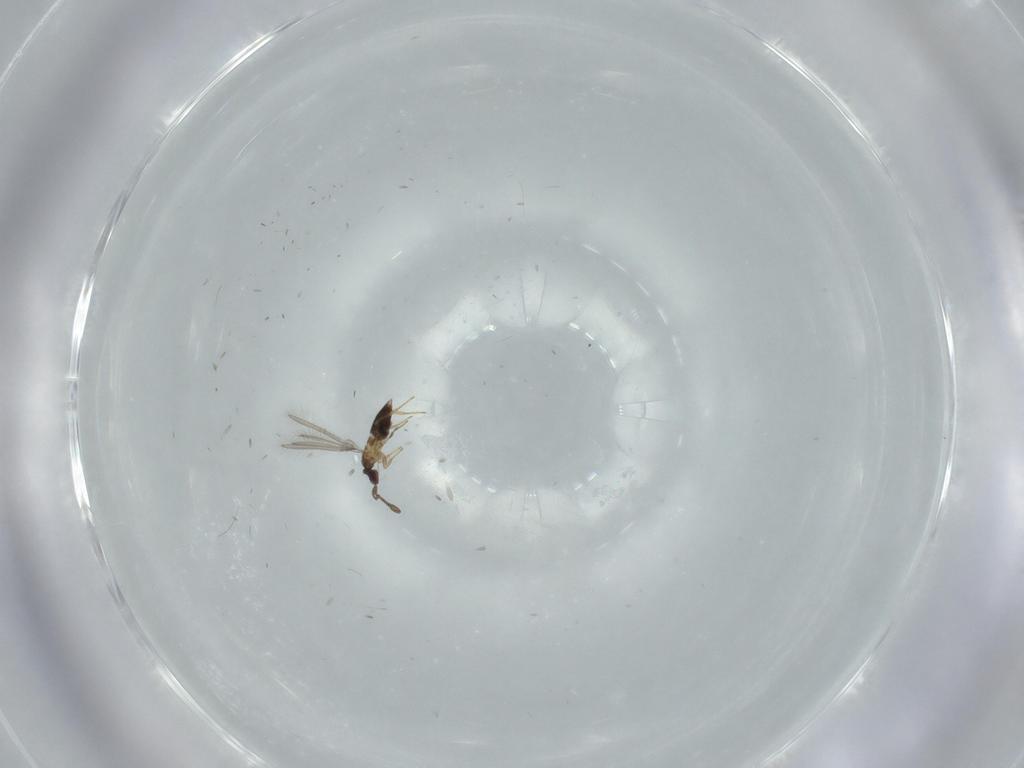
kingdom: Animalia
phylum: Arthropoda
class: Insecta
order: Hymenoptera
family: Mymaridae
